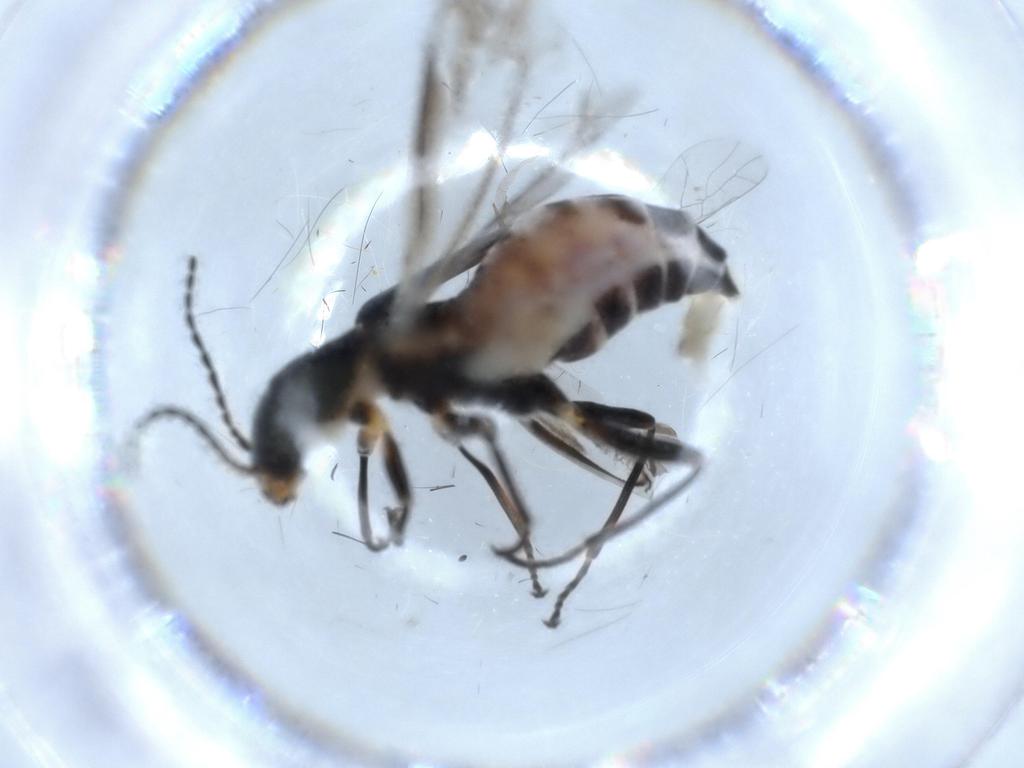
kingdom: Animalia
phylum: Arthropoda
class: Insecta
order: Coleoptera
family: Melyridae
